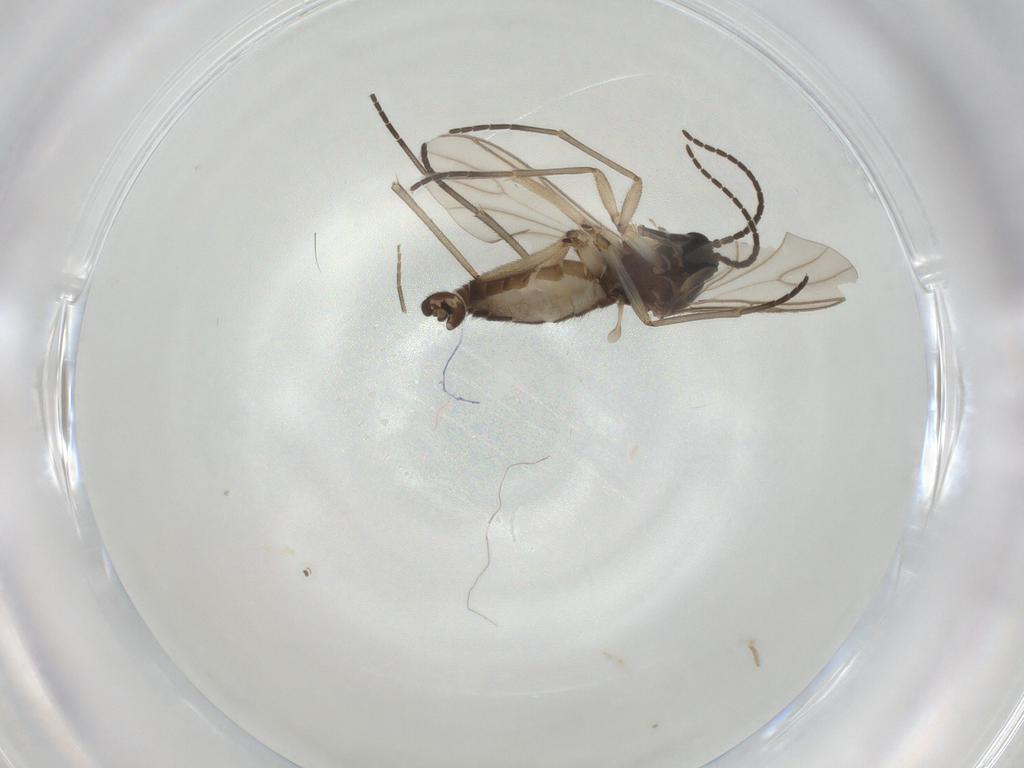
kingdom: Animalia
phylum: Arthropoda
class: Insecta
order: Diptera
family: Sciaridae
